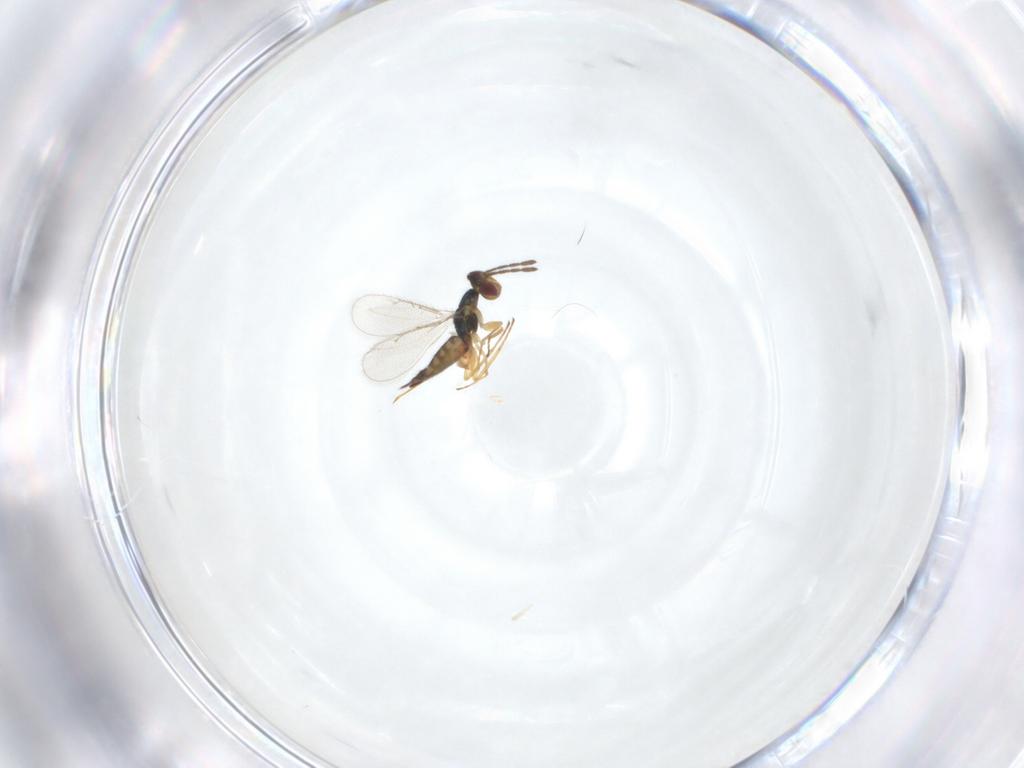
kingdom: Animalia
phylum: Arthropoda
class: Insecta
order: Hymenoptera
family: Eulophidae
